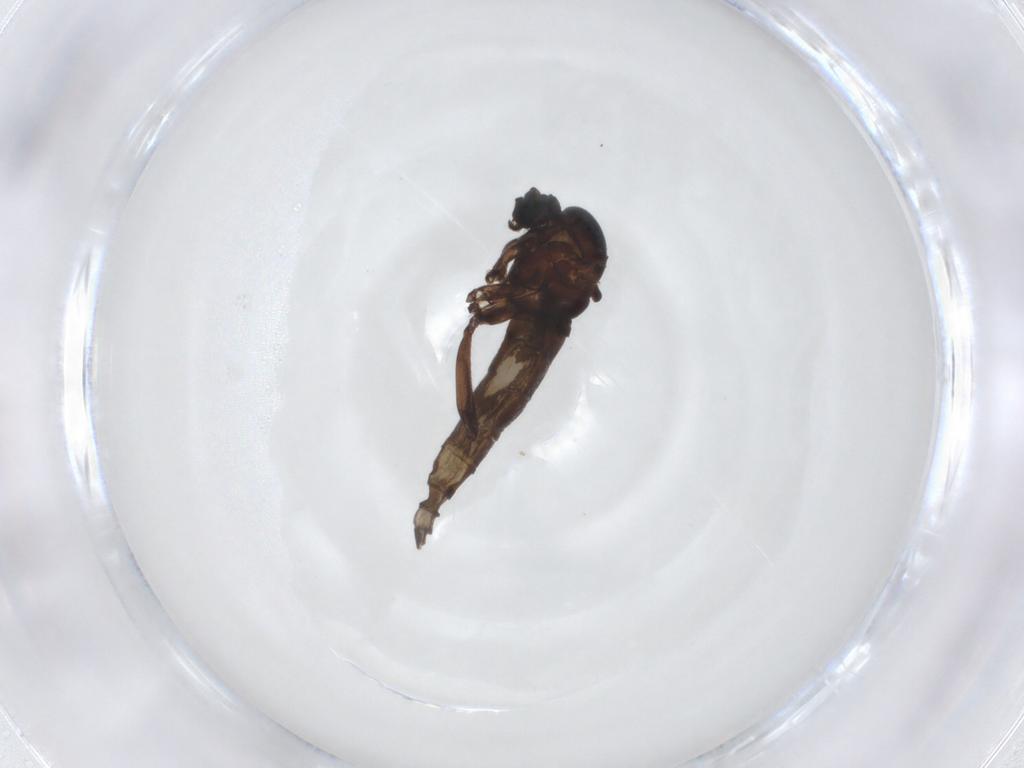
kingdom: Animalia
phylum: Arthropoda
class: Insecta
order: Diptera
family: Sciaridae
